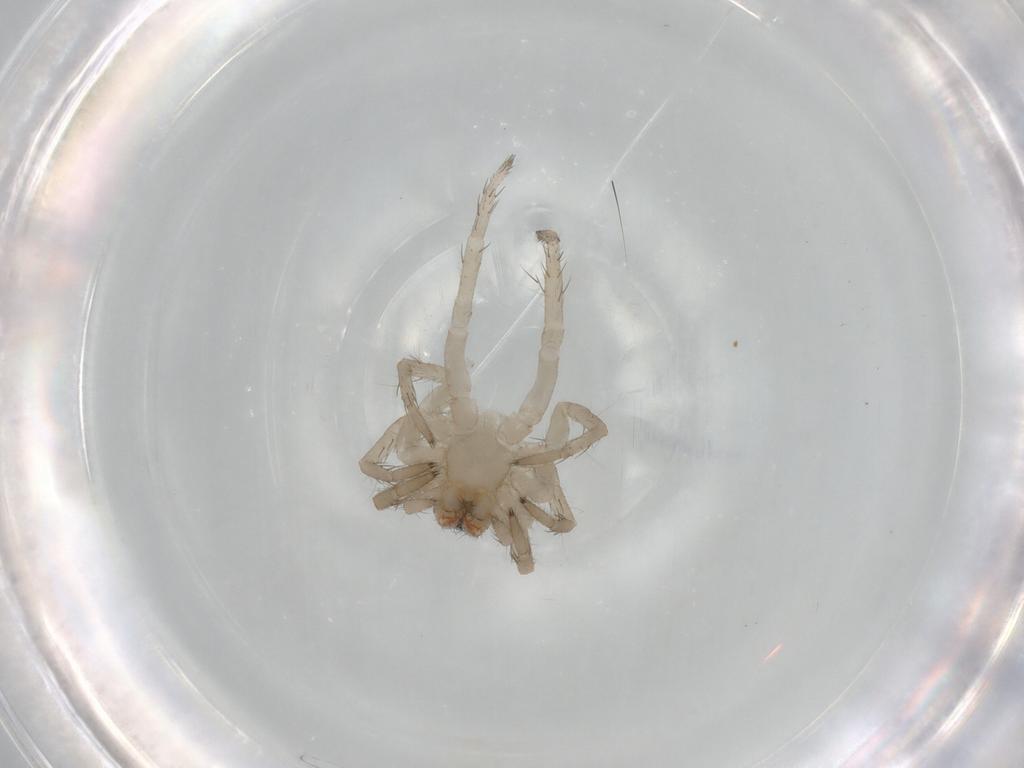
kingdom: Animalia
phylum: Arthropoda
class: Arachnida
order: Araneae
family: Lycosidae
